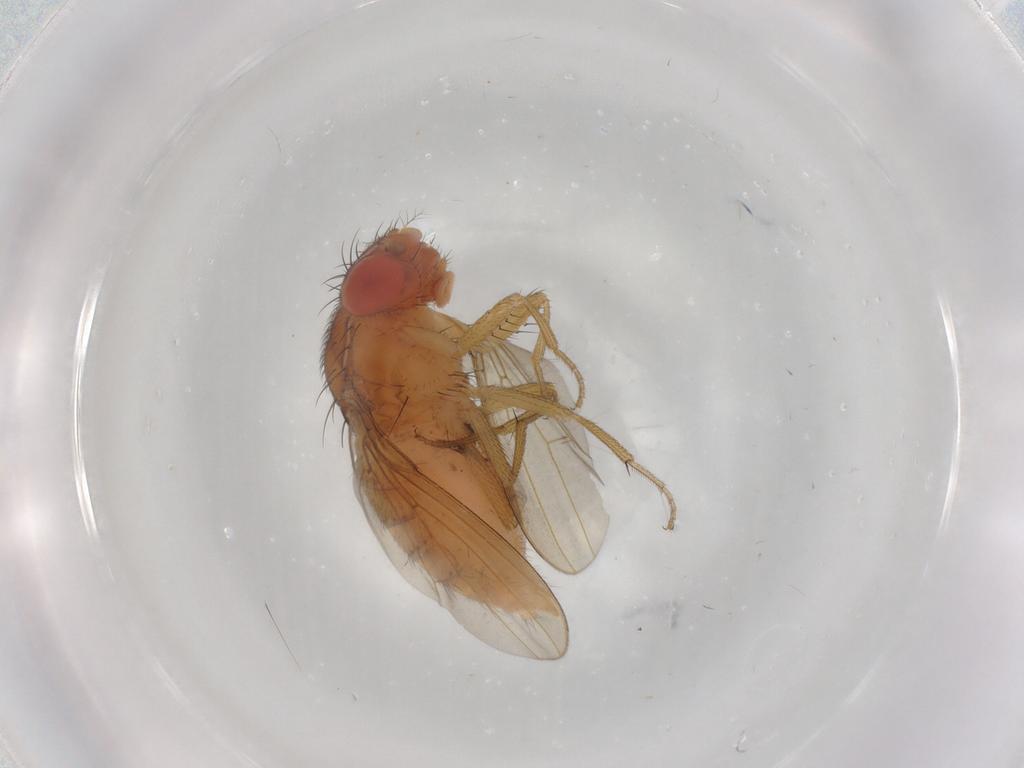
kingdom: Animalia
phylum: Arthropoda
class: Insecta
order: Diptera
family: Drosophilidae
